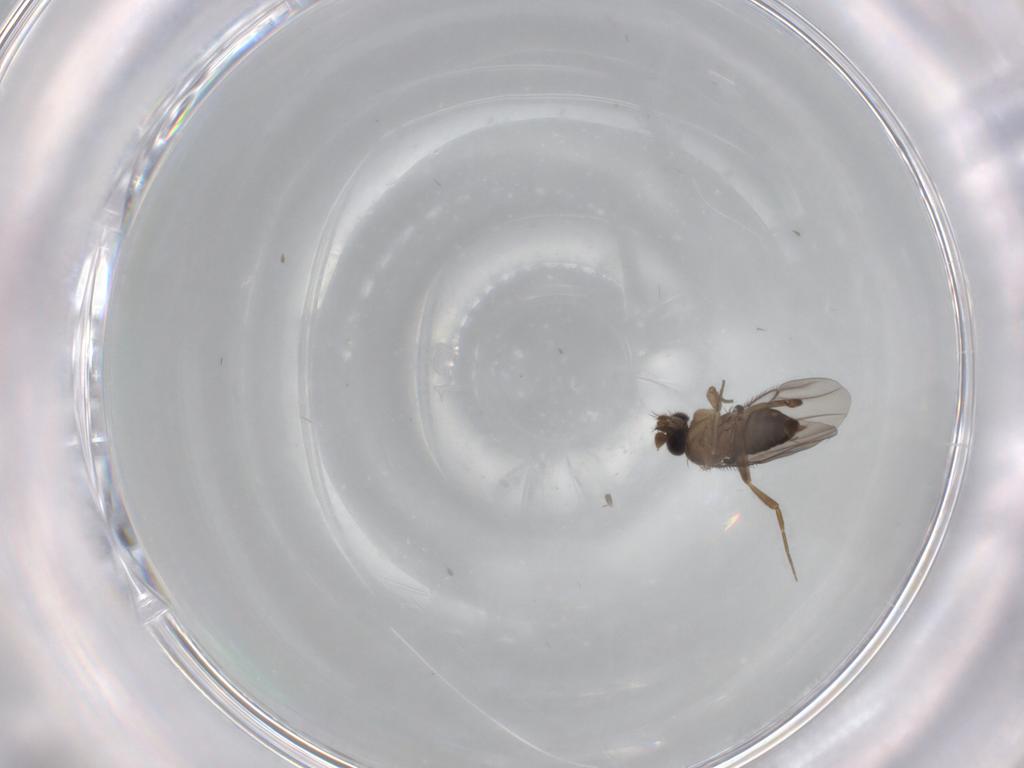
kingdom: Animalia
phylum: Arthropoda
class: Insecta
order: Diptera
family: Phoridae
